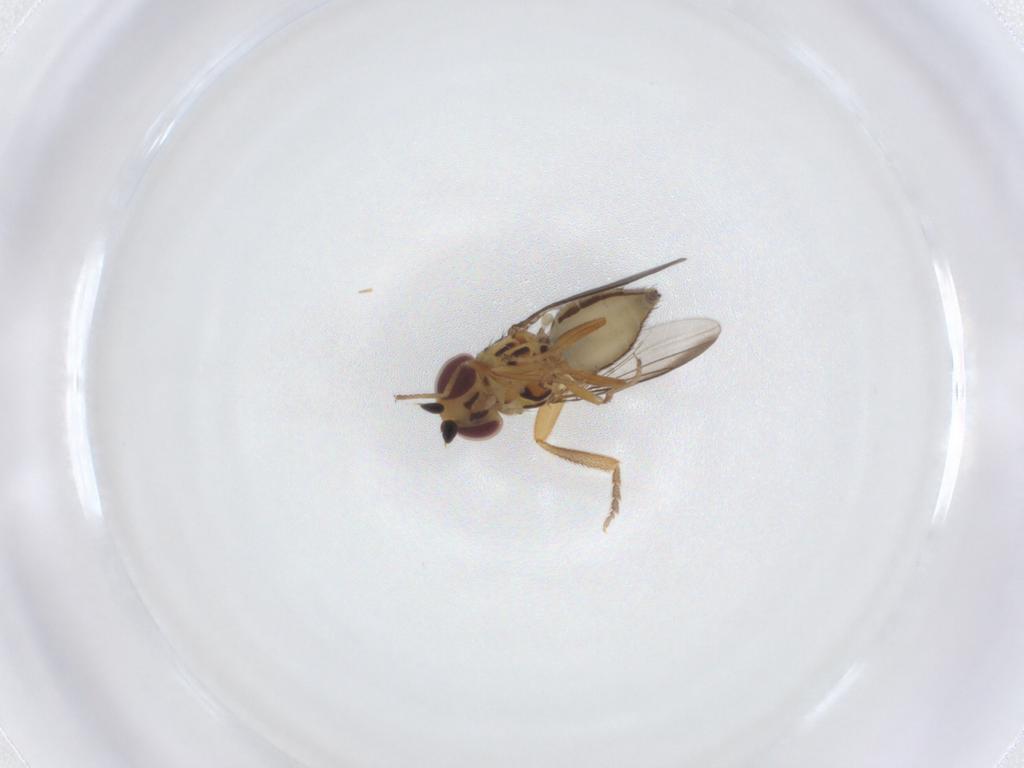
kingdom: Animalia
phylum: Arthropoda
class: Insecta
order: Diptera
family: Chloropidae
